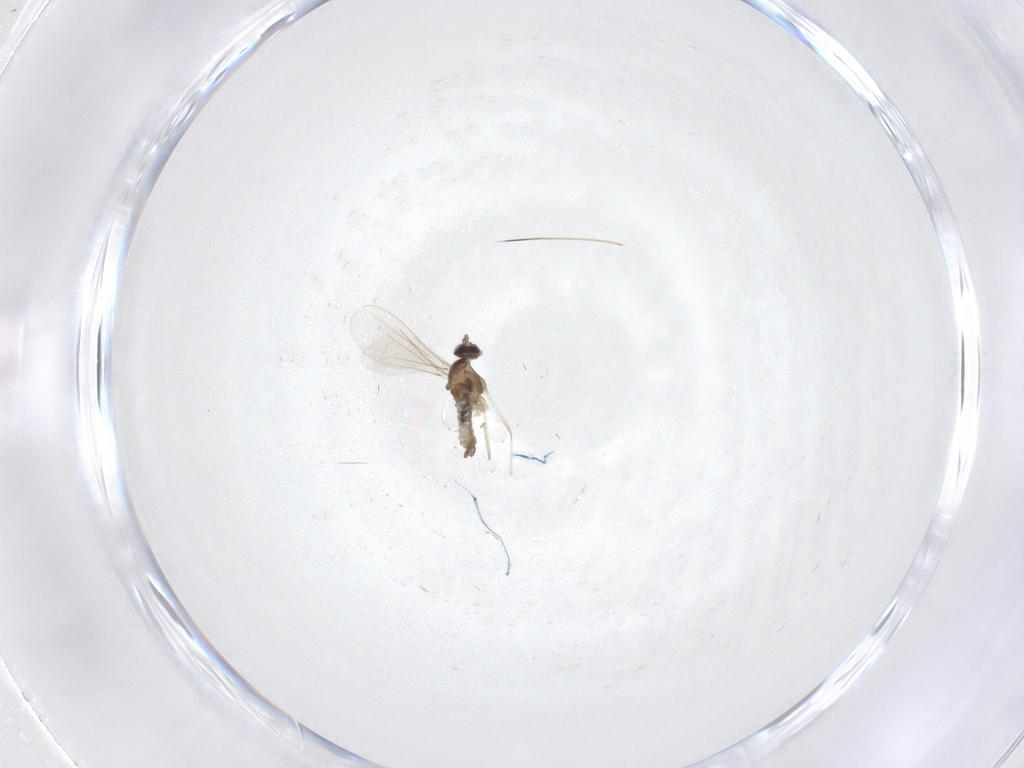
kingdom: Animalia
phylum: Arthropoda
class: Insecta
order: Diptera
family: Cecidomyiidae
